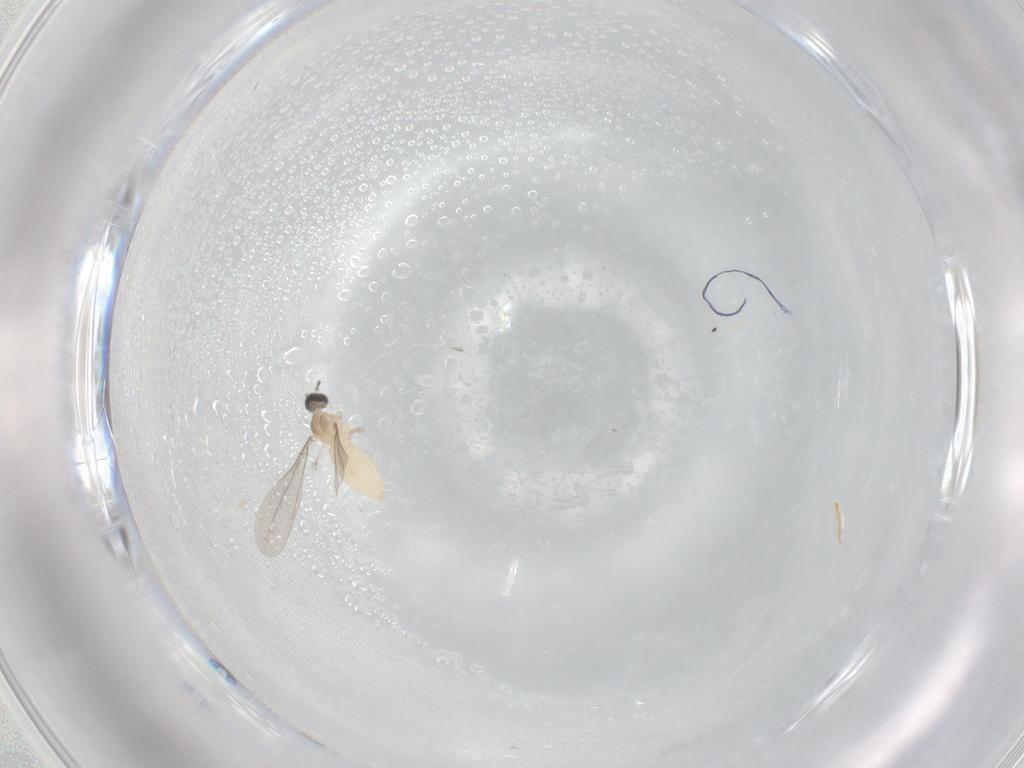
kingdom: Animalia
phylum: Arthropoda
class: Insecta
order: Diptera
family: Cecidomyiidae
